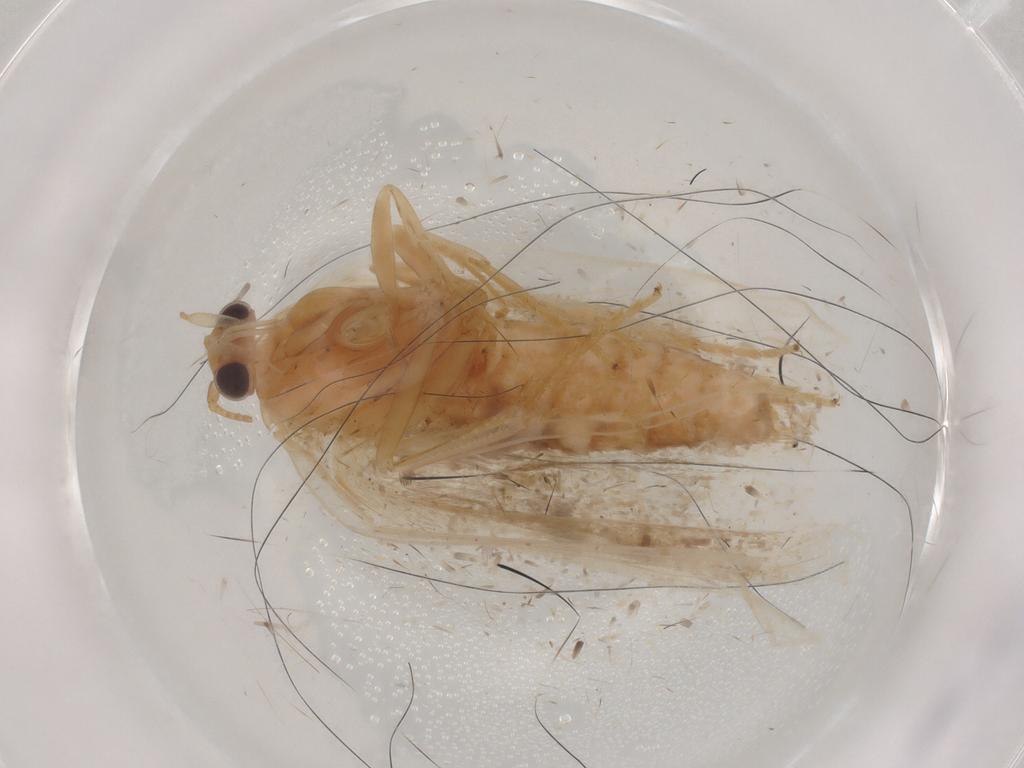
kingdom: Animalia
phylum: Arthropoda
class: Insecta
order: Lepidoptera
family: Tortricidae
